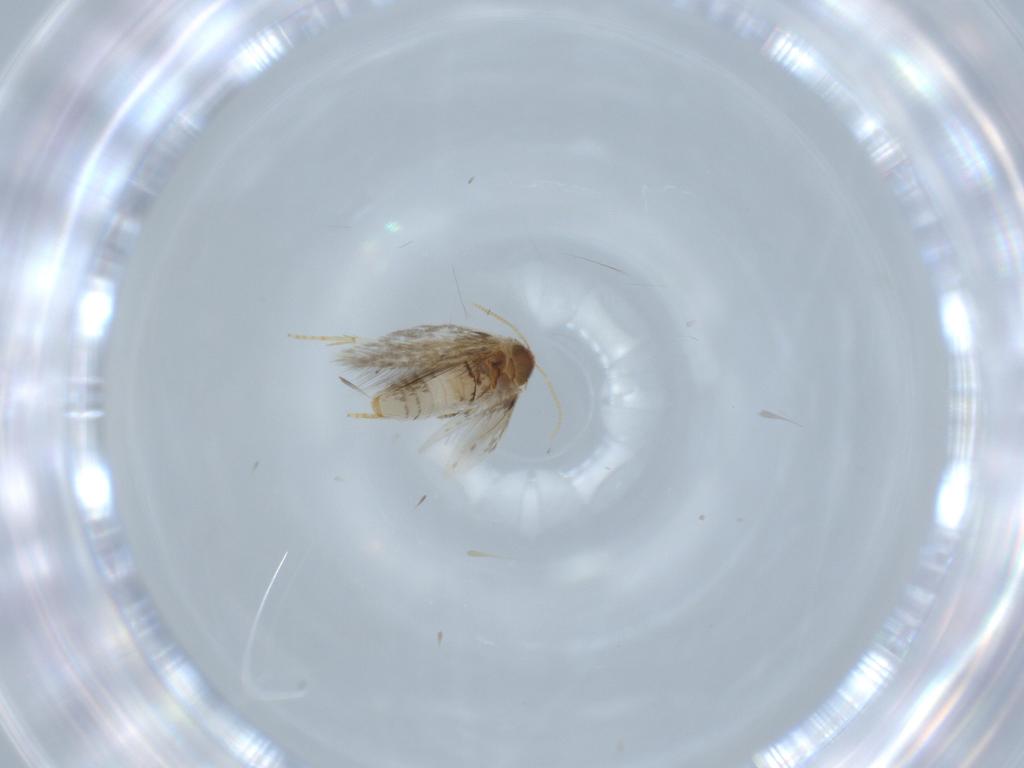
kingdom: Animalia
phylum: Arthropoda
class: Insecta
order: Lepidoptera
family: Copromorphidae
